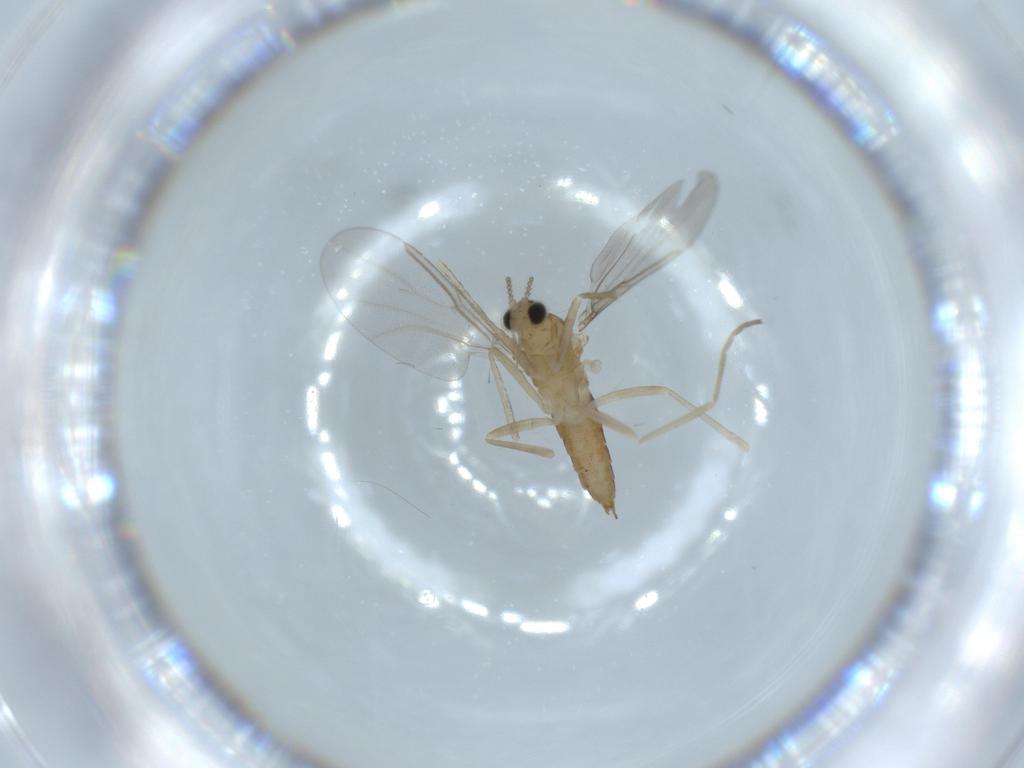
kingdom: Animalia
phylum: Arthropoda
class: Insecta
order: Diptera
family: Cecidomyiidae
